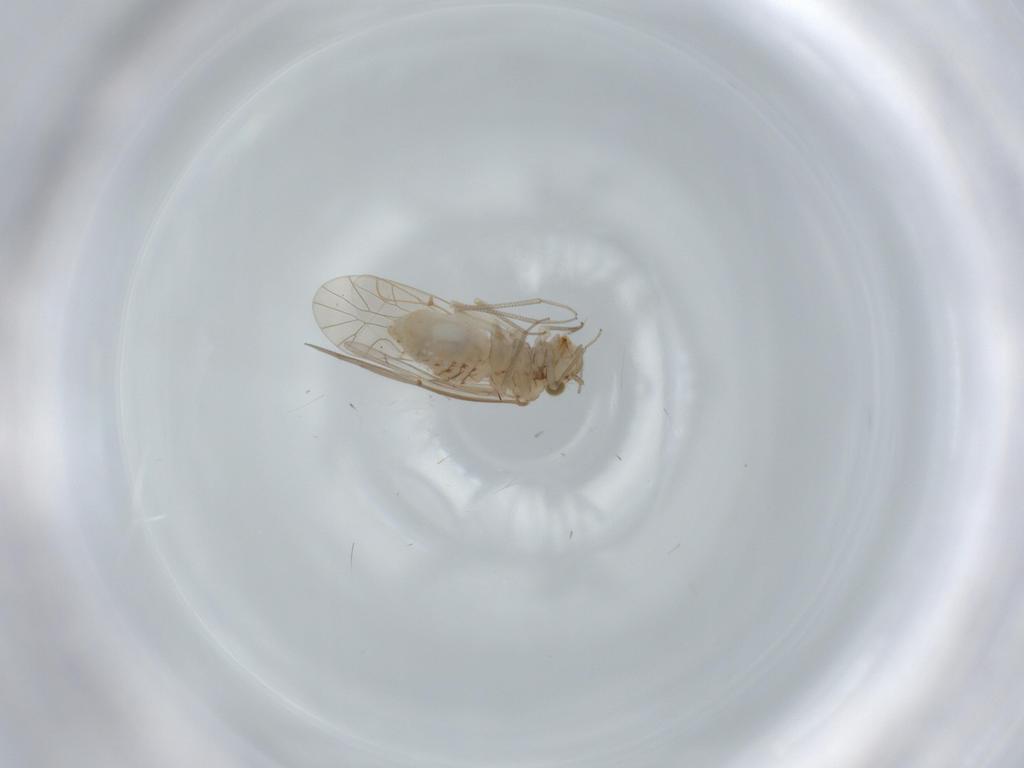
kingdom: Animalia
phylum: Arthropoda
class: Insecta
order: Psocodea
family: Lachesillidae
